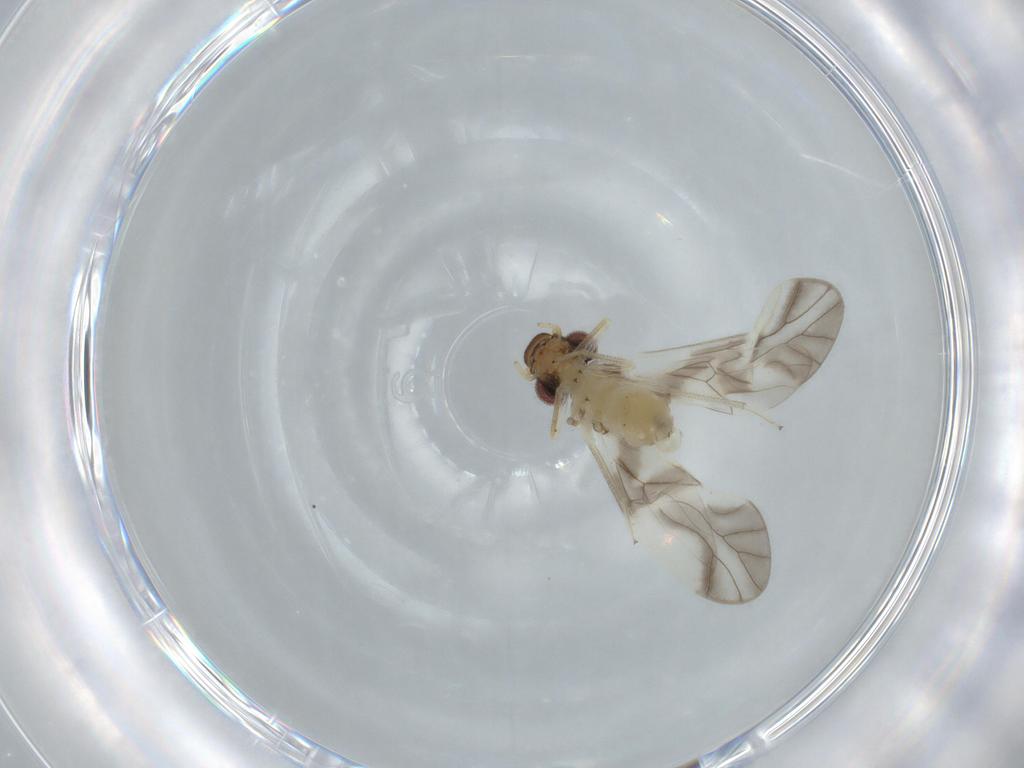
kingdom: Animalia
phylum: Arthropoda
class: Insecta
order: Psocodea
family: Caeciliusidae
